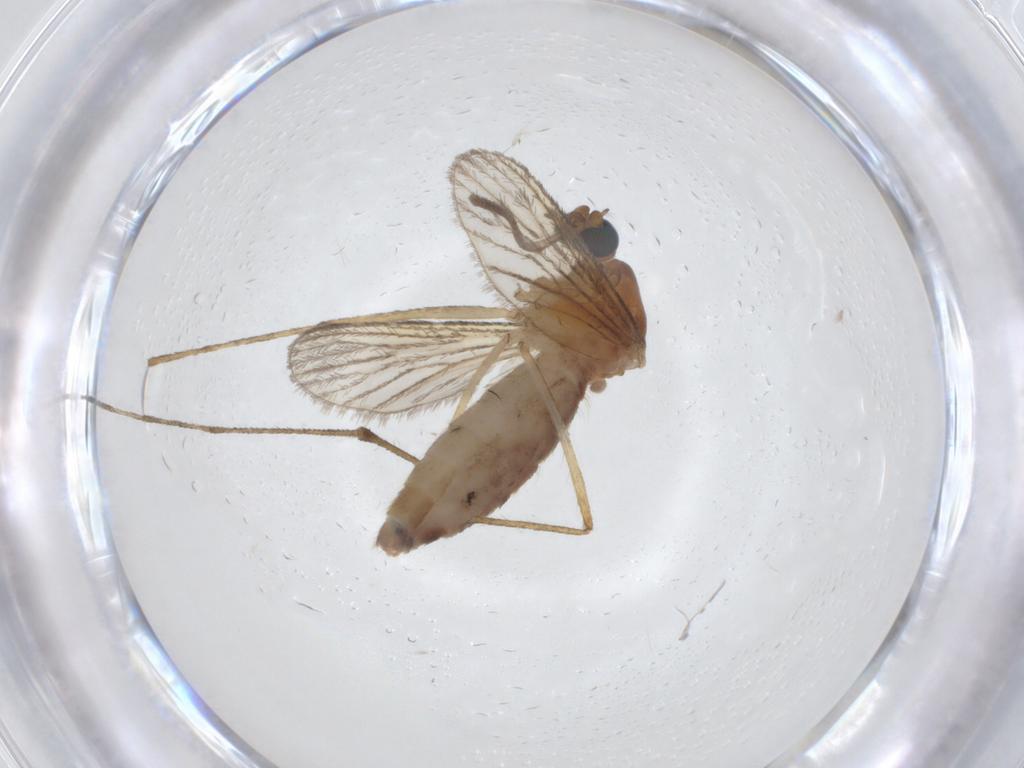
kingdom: Animalia
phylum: Arthropoda
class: Insecta
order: Diptera
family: Culicidae
